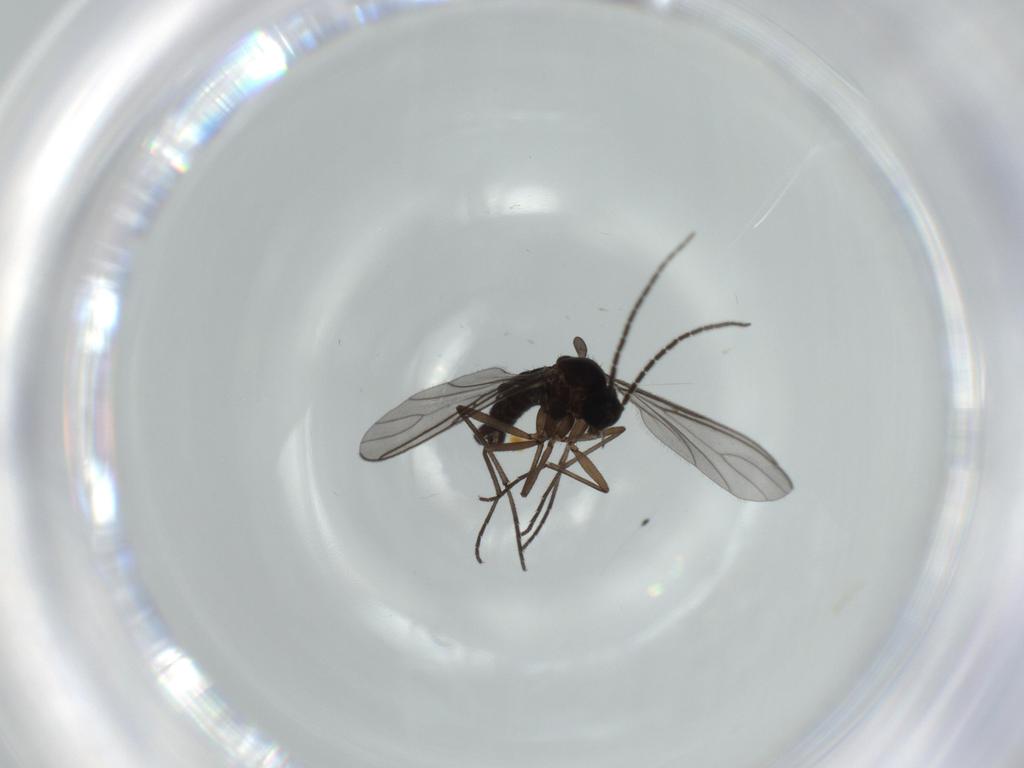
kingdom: Animalia
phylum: Arthropoda
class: Insecta
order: Diptera
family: Sciaridae
